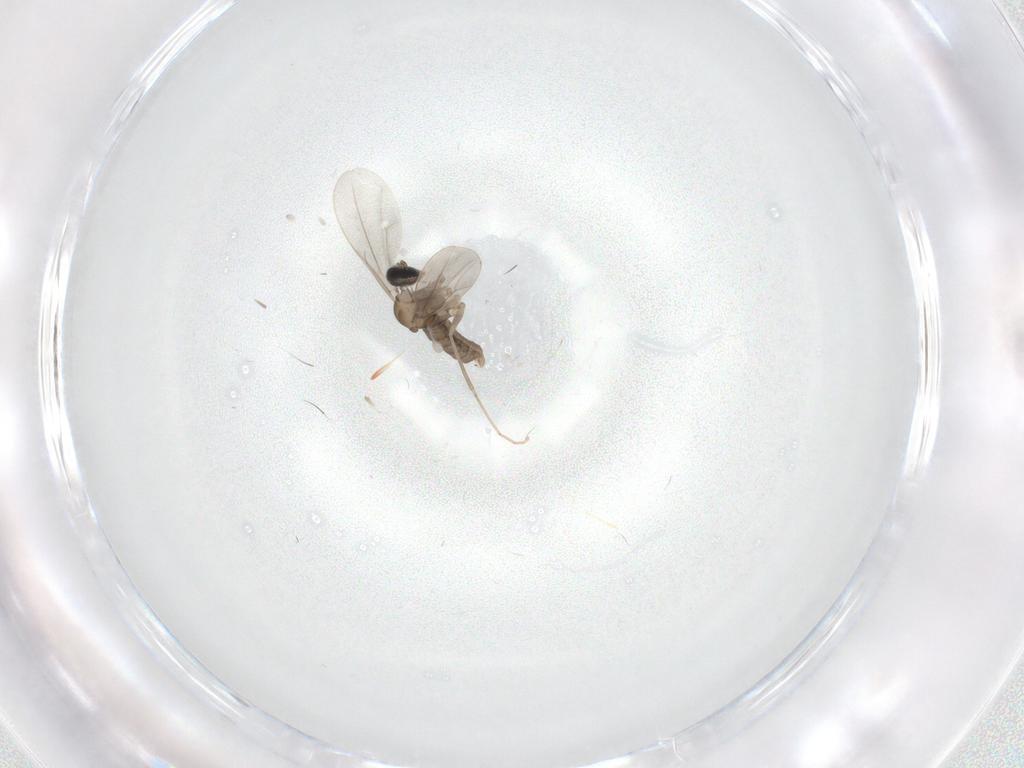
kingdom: Animalia
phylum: Arthropoda
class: Insecta
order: Diptera
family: Cecidomyiidae
